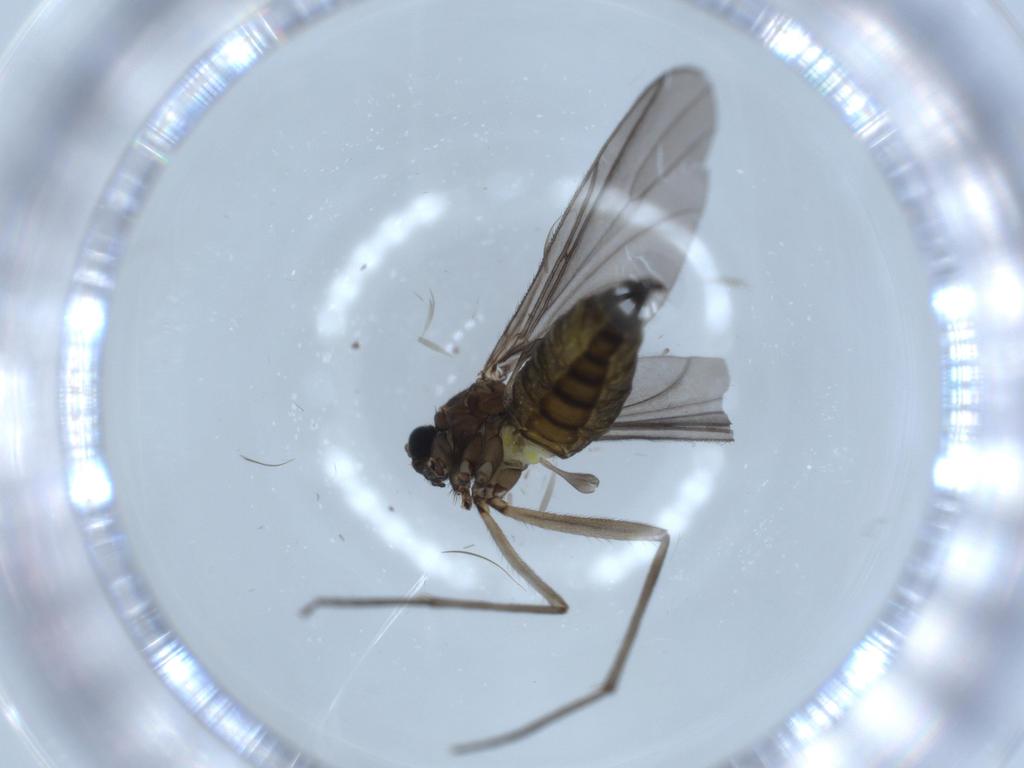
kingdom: Animalia
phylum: Arthropoda
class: Insecta
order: Diptera
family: Sciaridae
